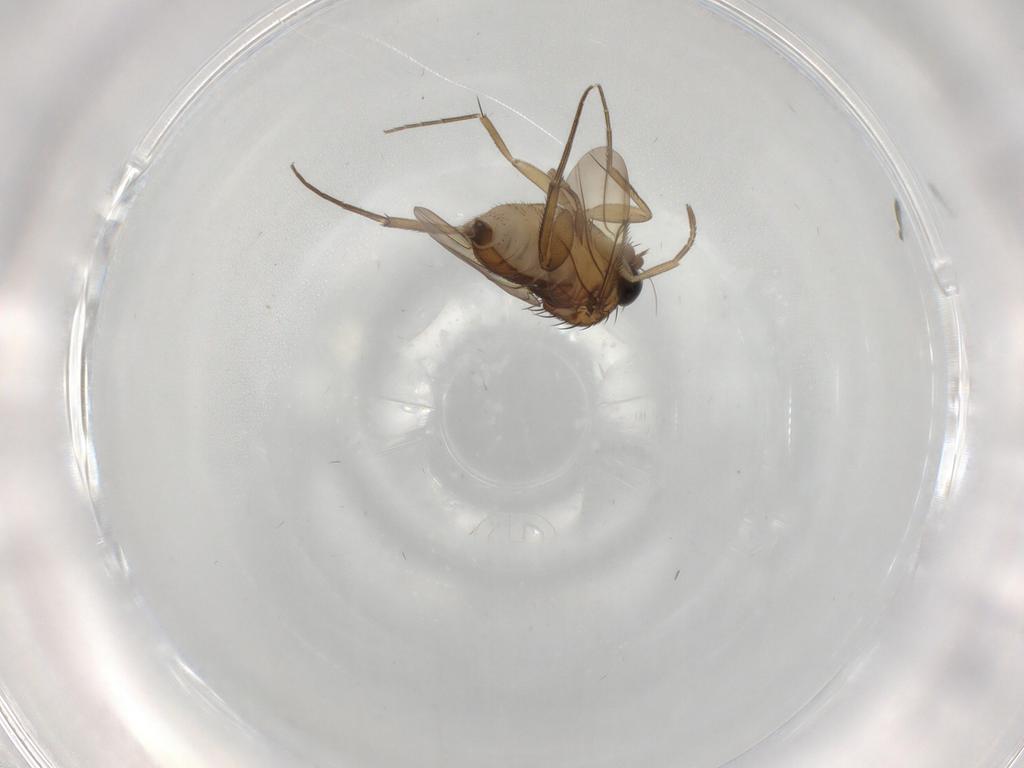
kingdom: Animalia
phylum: Arthropoda
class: Insecta
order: Diptera
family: Phoridae
